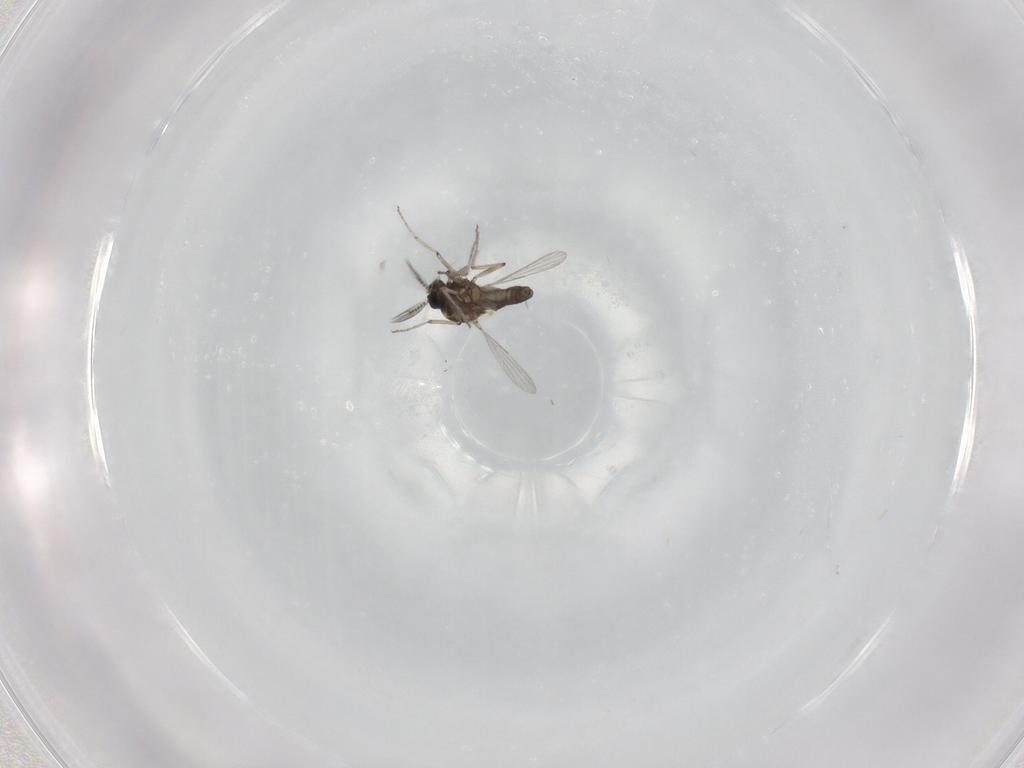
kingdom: Animalia
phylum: Arthropoda
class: Insecta
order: Diptera
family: Ceratopogonidae
